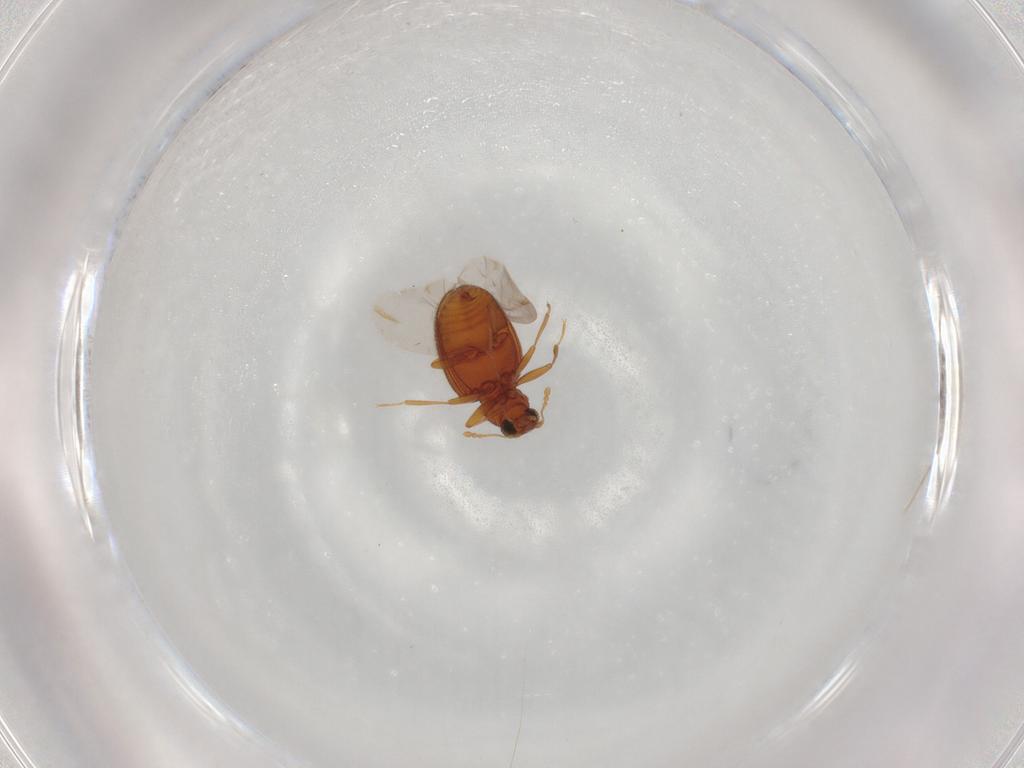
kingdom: Animalia
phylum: Arthropoda
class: Insecta
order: Coleoptera
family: Latridiidae
